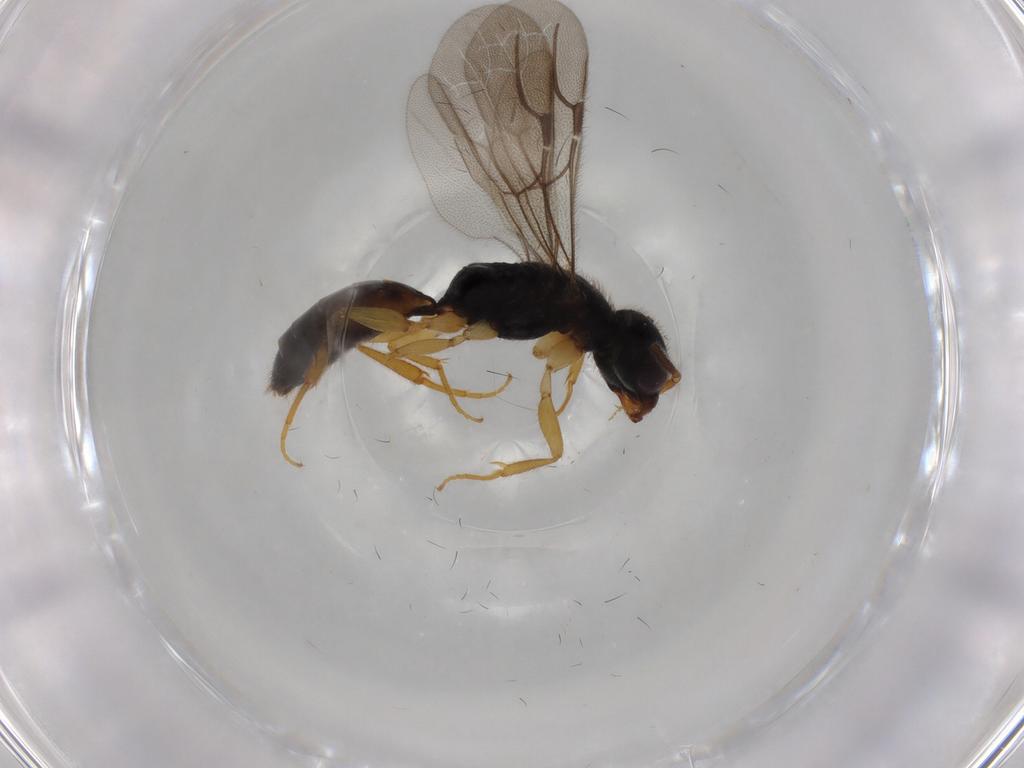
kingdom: Animalia
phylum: Arthropoda
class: Insecta
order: Hymenoptera
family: Bethylidae
